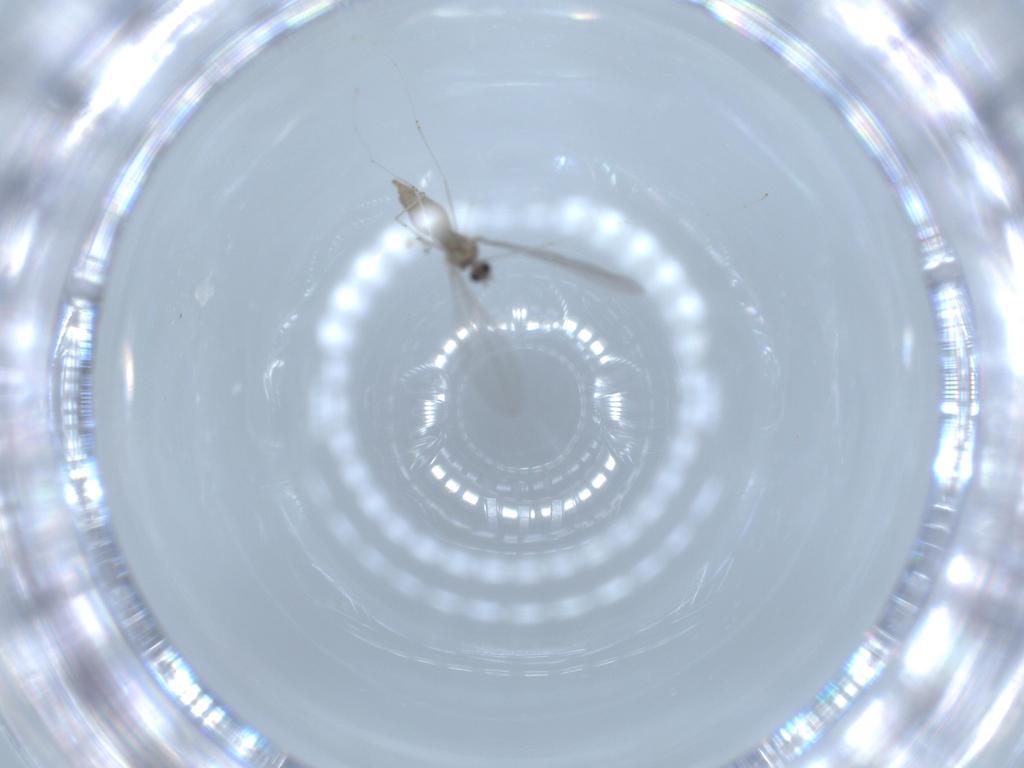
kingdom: Animalia
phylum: Arthropoda
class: Insecta
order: Diptera
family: Cecidomyiidae
